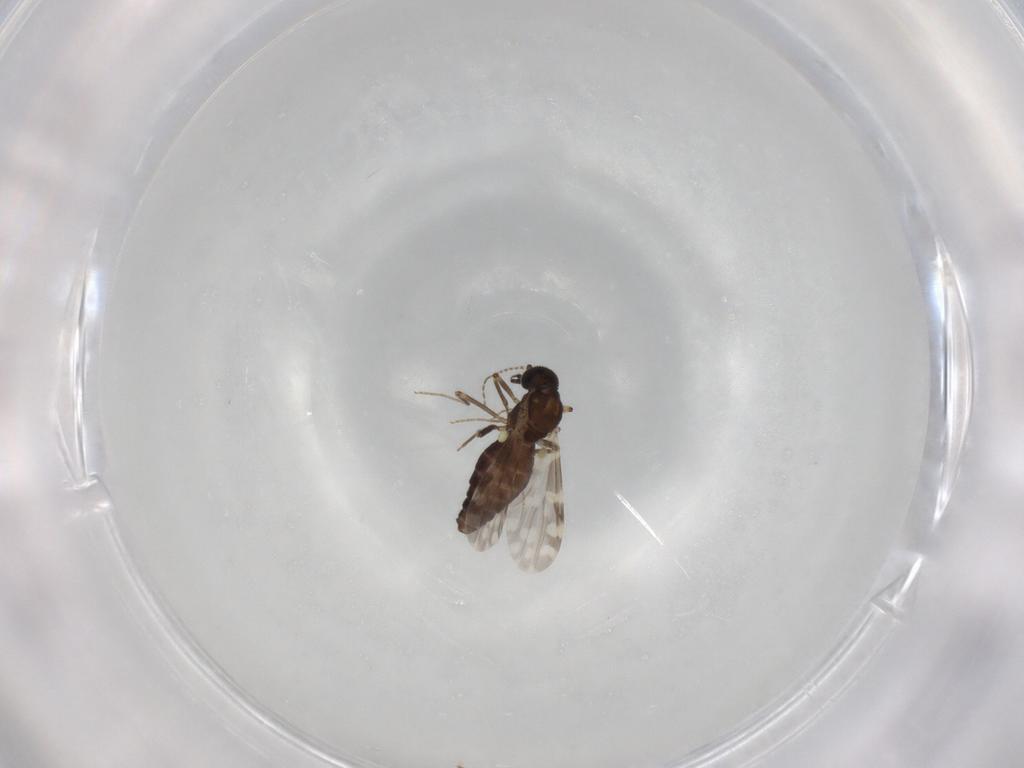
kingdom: Animalia
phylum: Arthropoda
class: Insecta
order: Diptera
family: Ceratopogonidae
